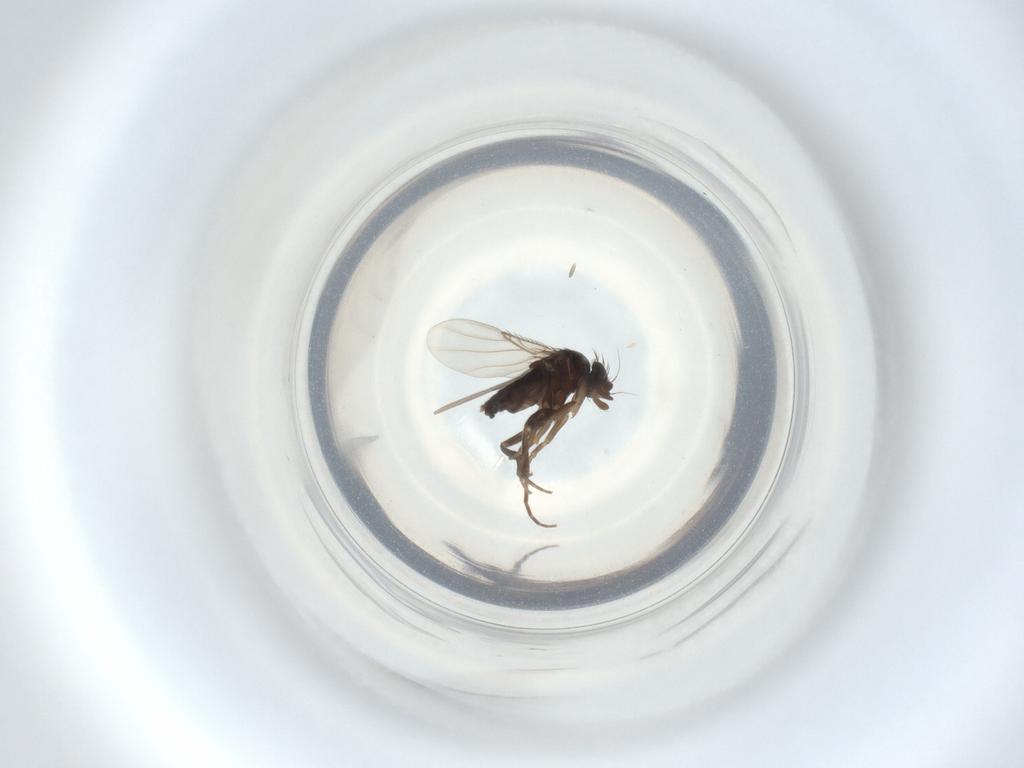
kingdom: Animalia
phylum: Arthropoda
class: Insecta
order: Diptera
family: Phoridae
